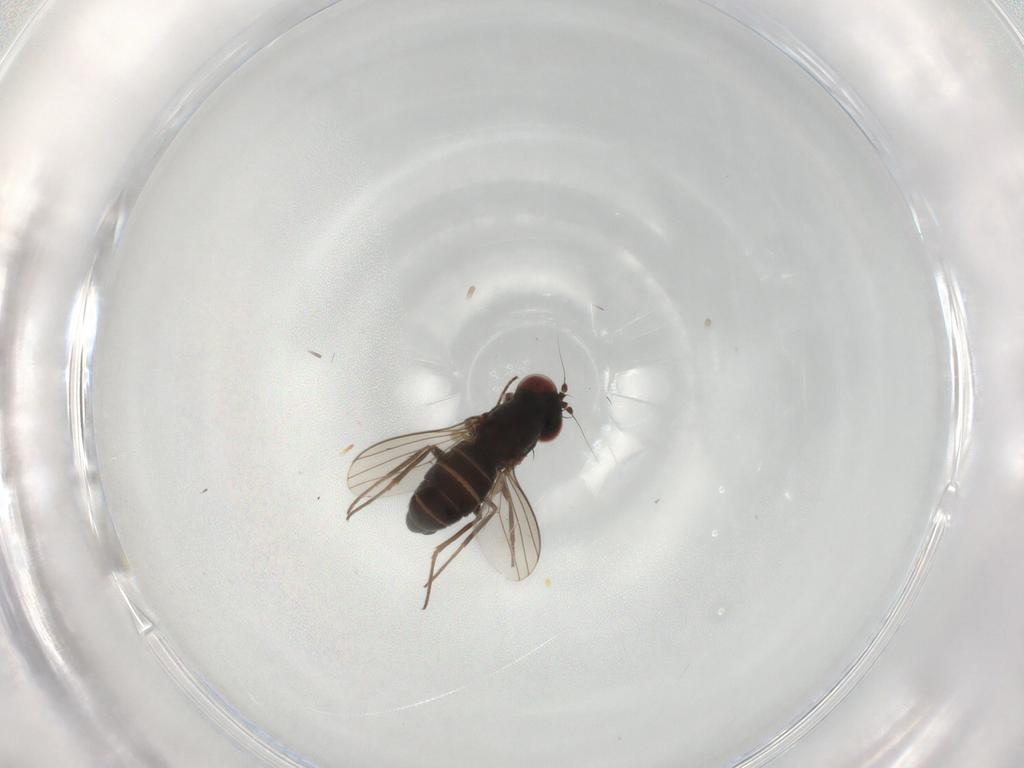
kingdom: Animalia
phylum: Arthropoda
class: Insecta
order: Diptera
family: Dolichopodidae
